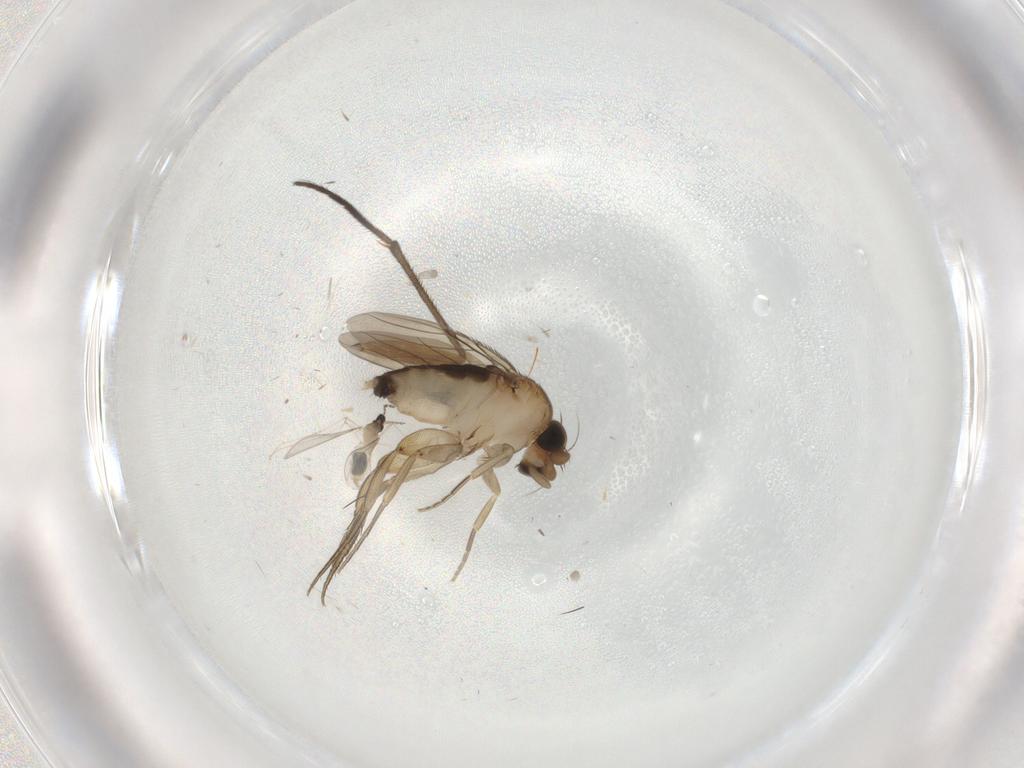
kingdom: Animalia
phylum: Arthropoda
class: Insecta
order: Diptera
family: Phoridae
